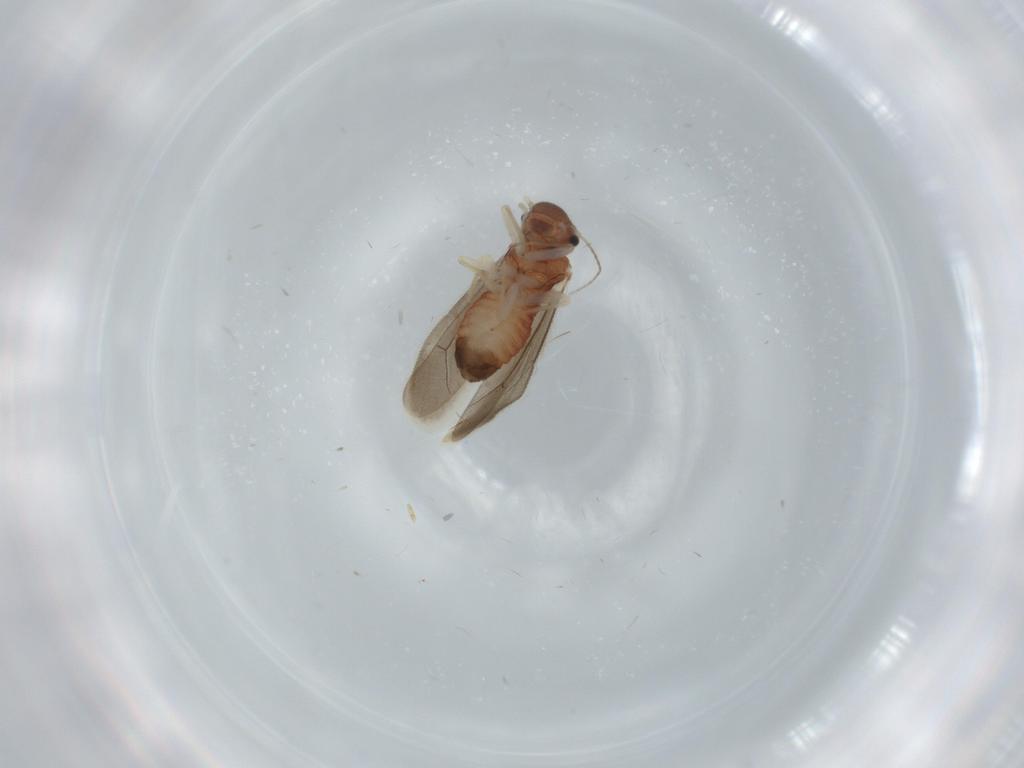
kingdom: Animalia
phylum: Arthropoda
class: Insecta
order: Psocodea
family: Archipsocidae
